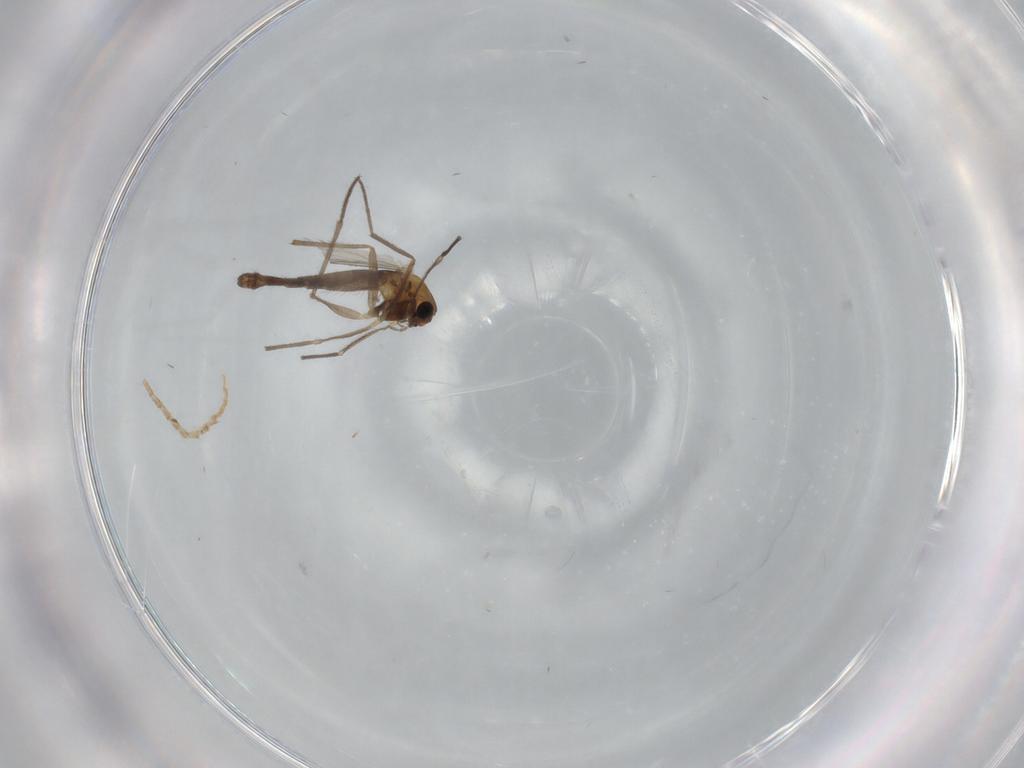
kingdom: Animalia
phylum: Arthropoda
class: Insecta
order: Diptera
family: Chironomidae
